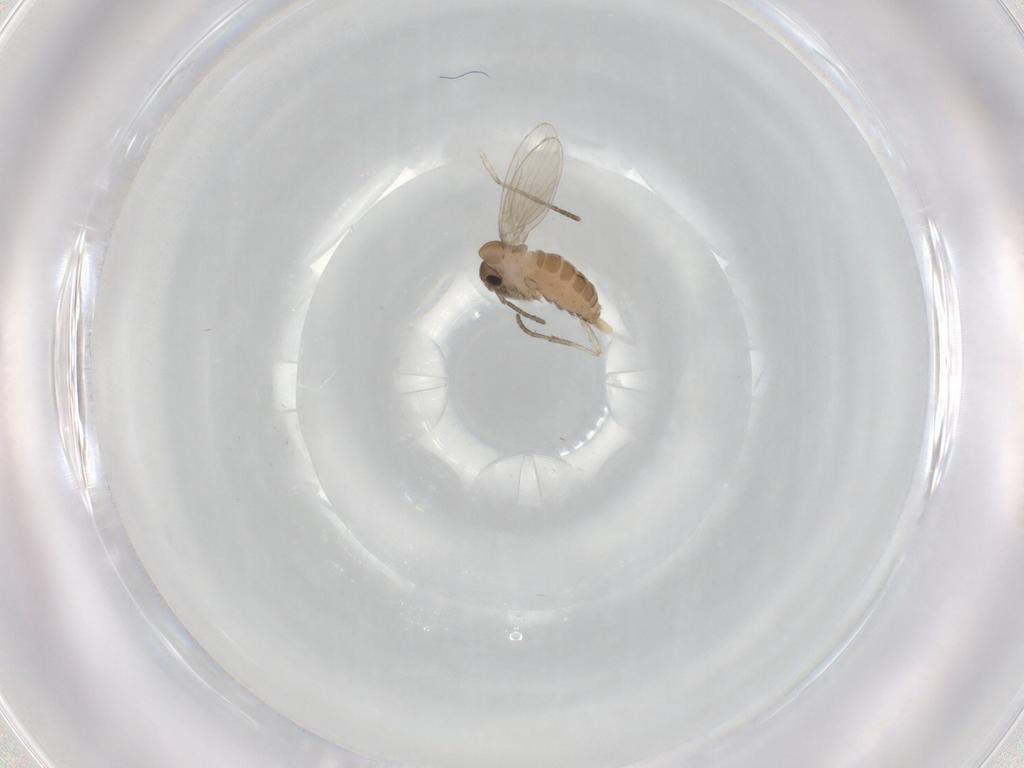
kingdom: Animalia
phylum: Arthropoda
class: Insecta
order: Diptera
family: Psychodidae
